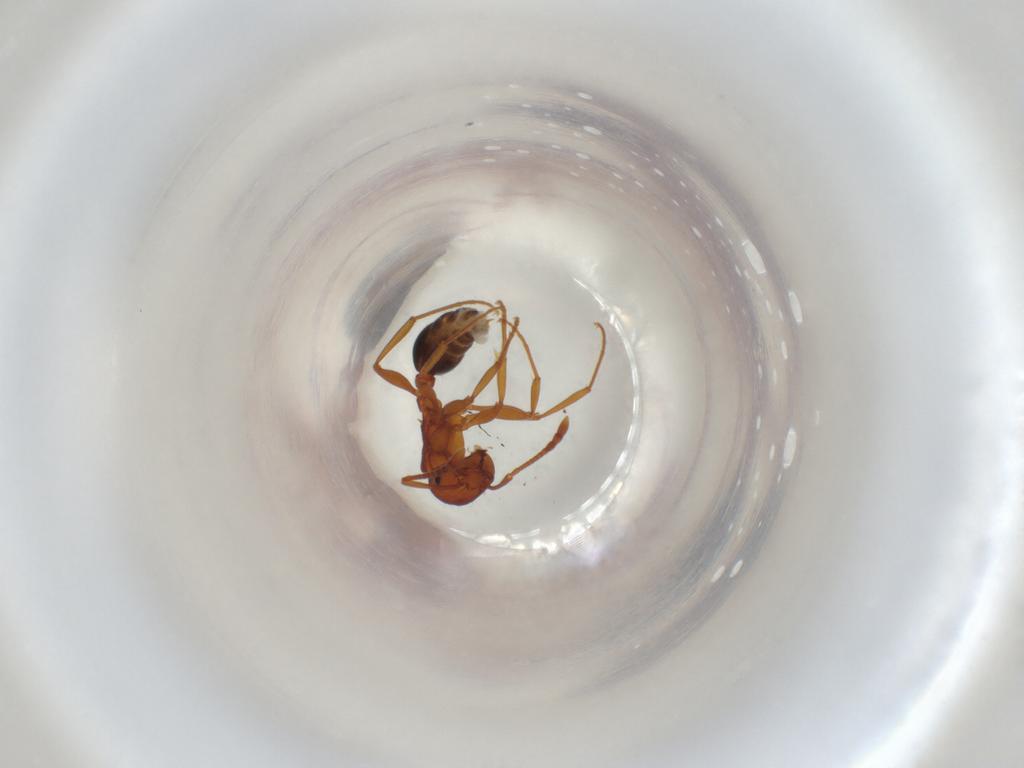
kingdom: Animalia
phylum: Arthropoda
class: Insecta
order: Hymenoptera
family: Formicidae
